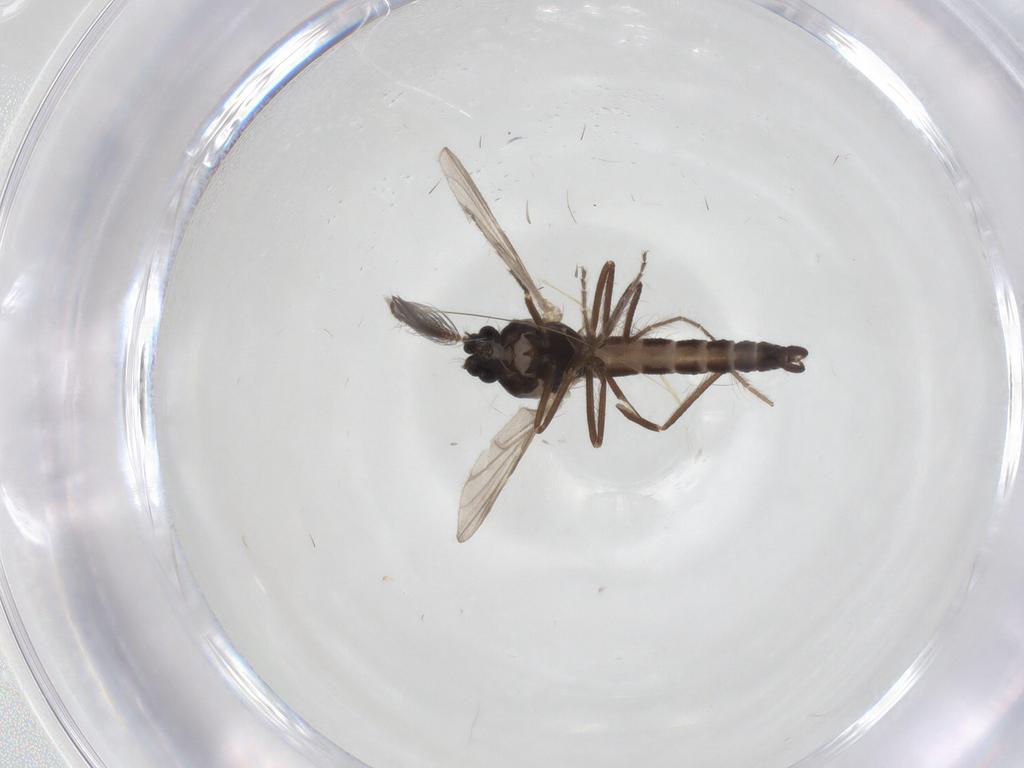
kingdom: Animalia
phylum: Arthropoda
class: Insecta
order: Diptera
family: Ceratopogonidae
